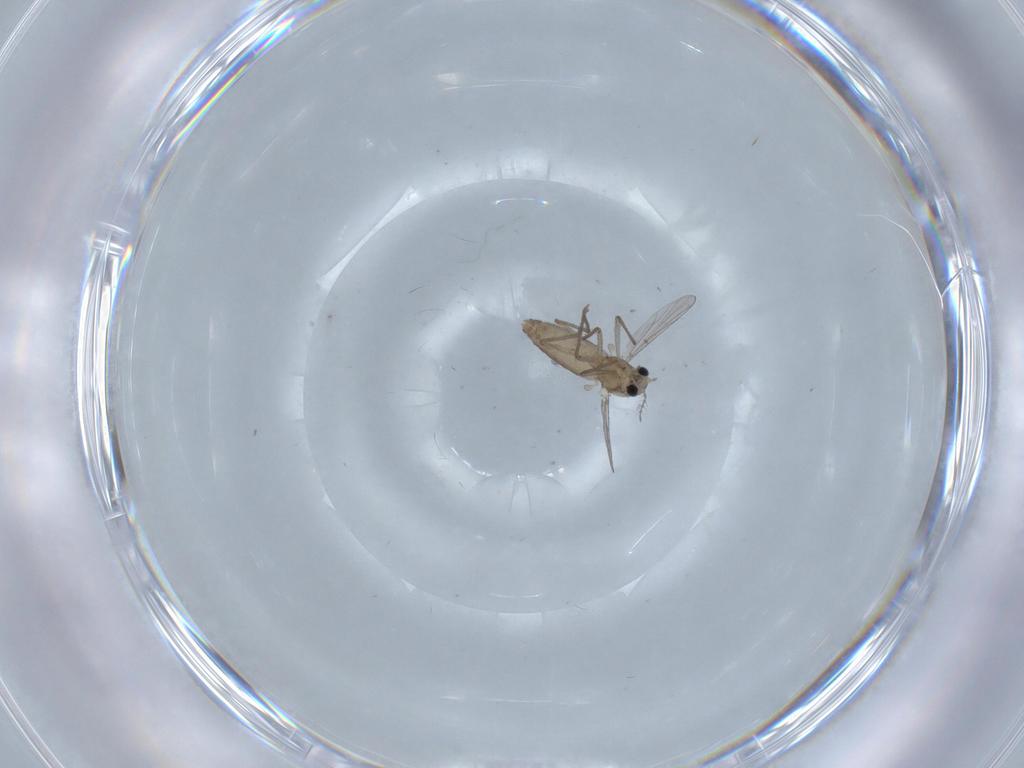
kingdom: Animalia
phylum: Arthropoda
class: Insecta
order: Diptera
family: Chironomidae
